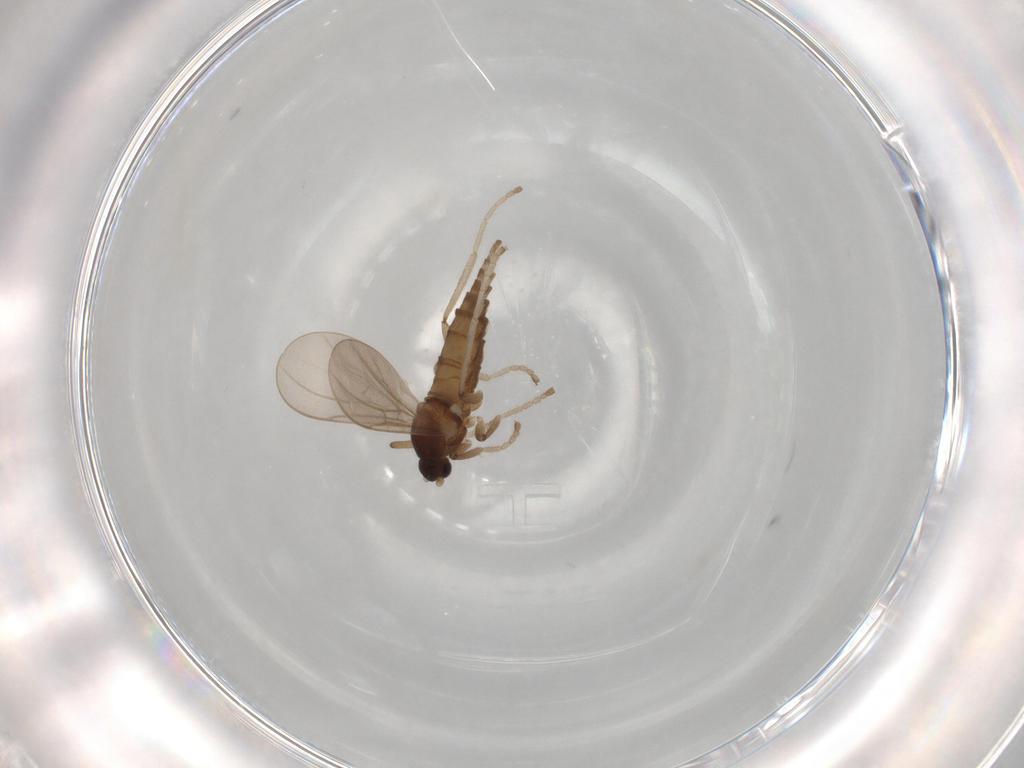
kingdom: Animalia
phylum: Arthropoda
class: Insecta
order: Diptera
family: Cecidomyiidae
